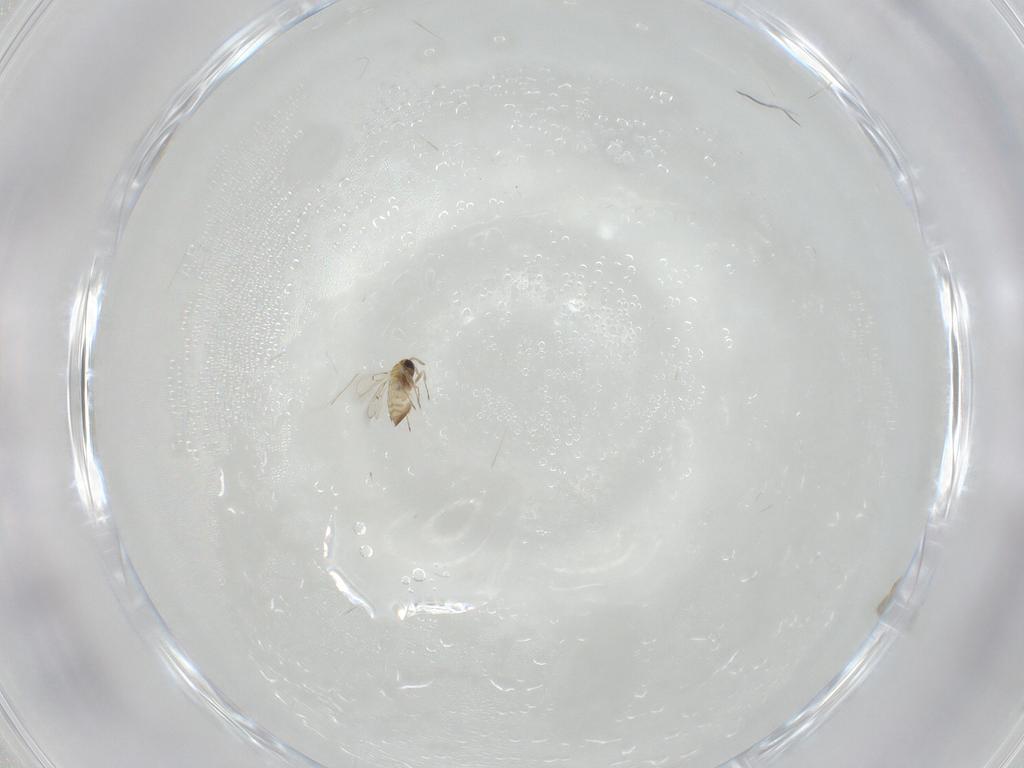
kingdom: Animalia
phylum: Arthropoda
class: Insecta
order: Hymenoptera
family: Trichogrammatidae
